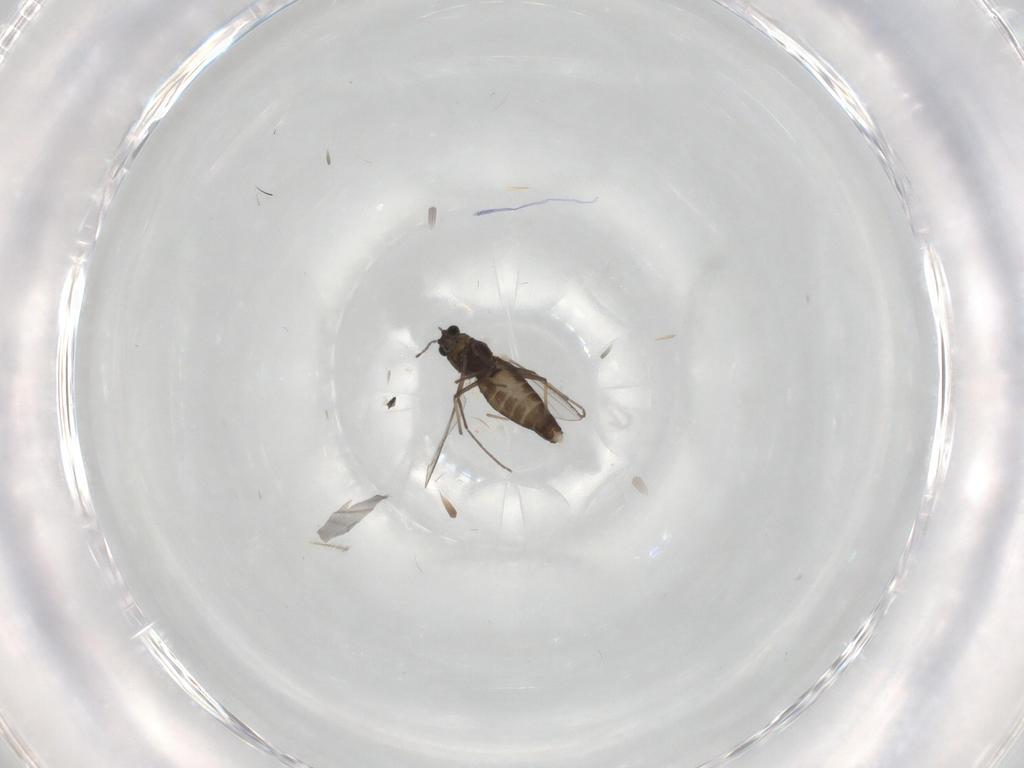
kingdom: Animalia
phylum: Arthropoda
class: Insecta
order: Diptera
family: Chironomidae
